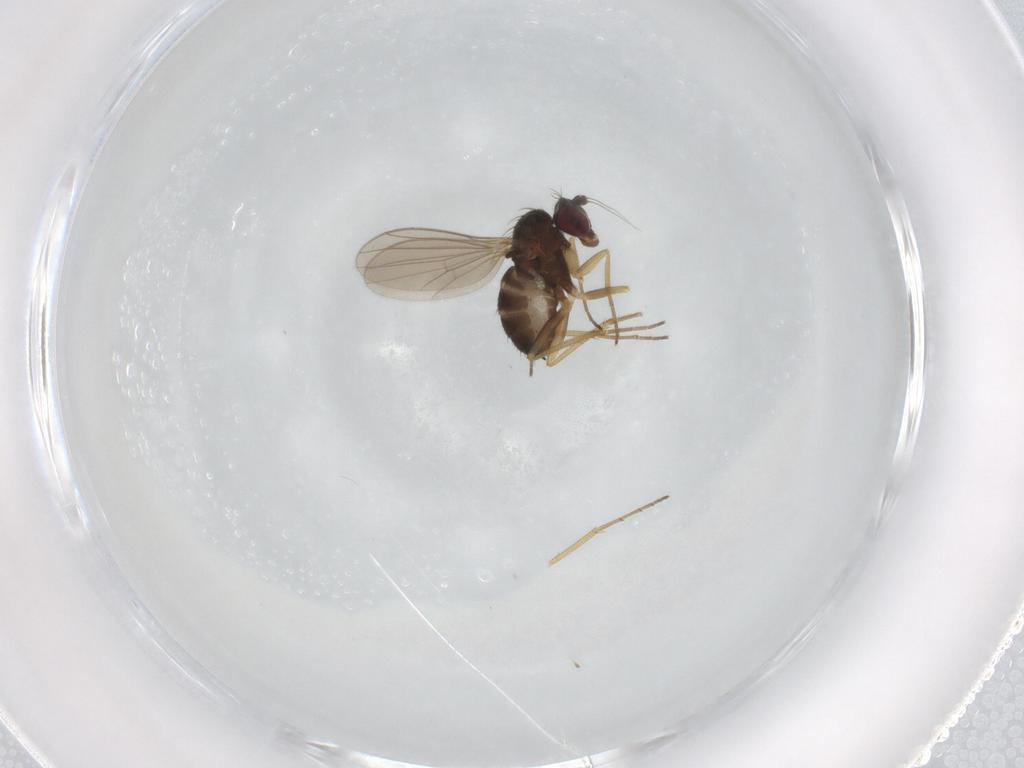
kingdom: Animalia
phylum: Arthropoda
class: Insecta
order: Diptera
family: Dolichopodidae
